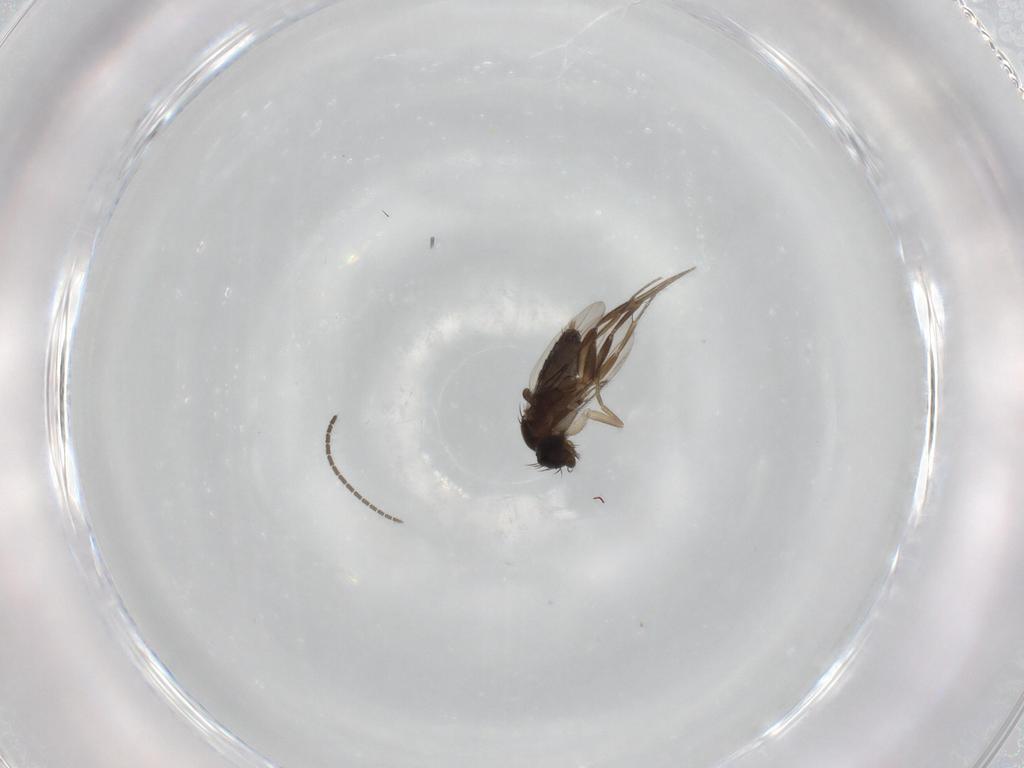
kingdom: Animalia
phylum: Arthropoda
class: Insecta
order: Diptera
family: Phoridae
